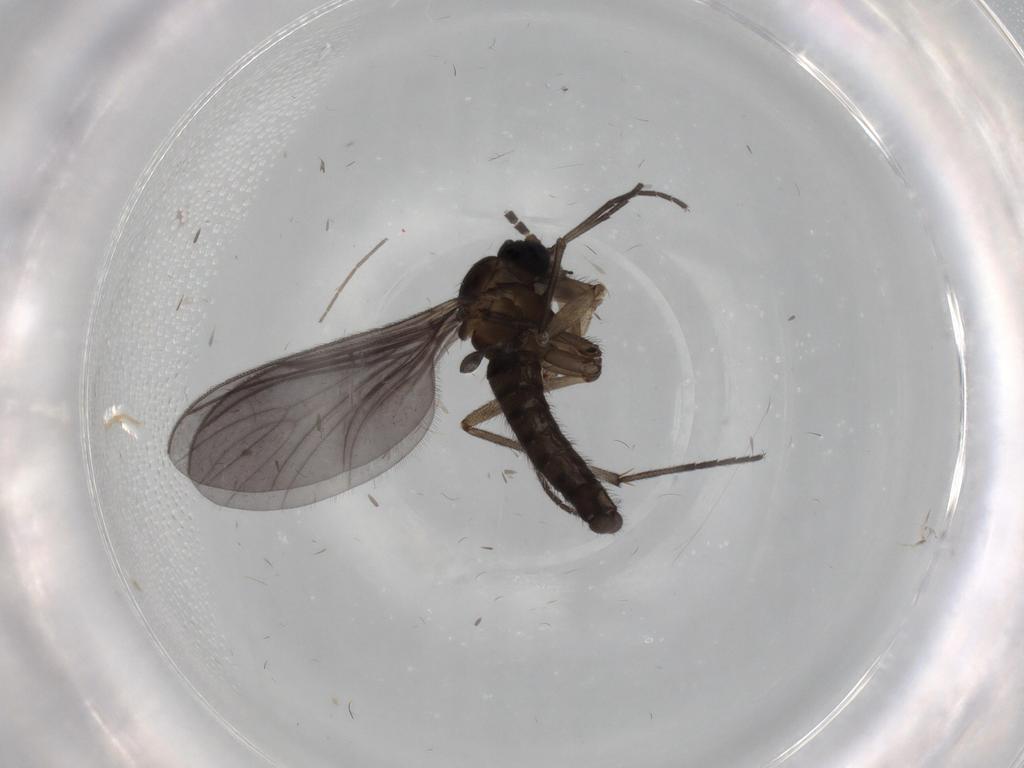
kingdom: Animalia
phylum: Arthropoda
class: Insecta
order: Diptera
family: Sciaridae
